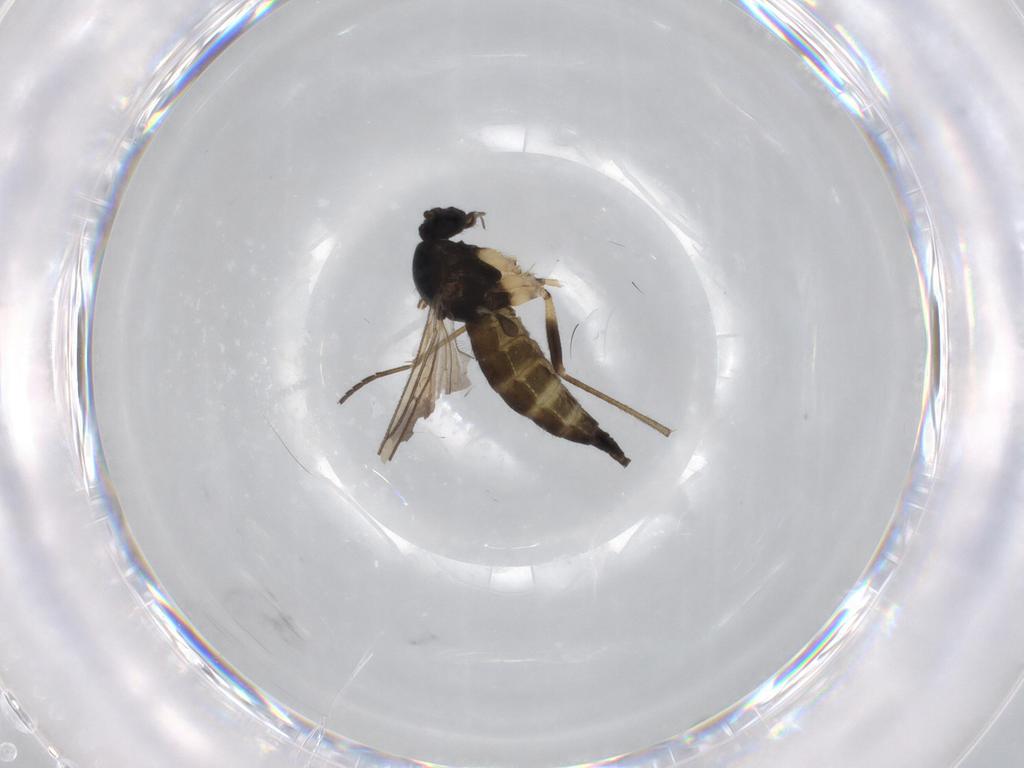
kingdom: Animalia
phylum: Arthropoda
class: Insecta
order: Diptera
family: Sciaridae
